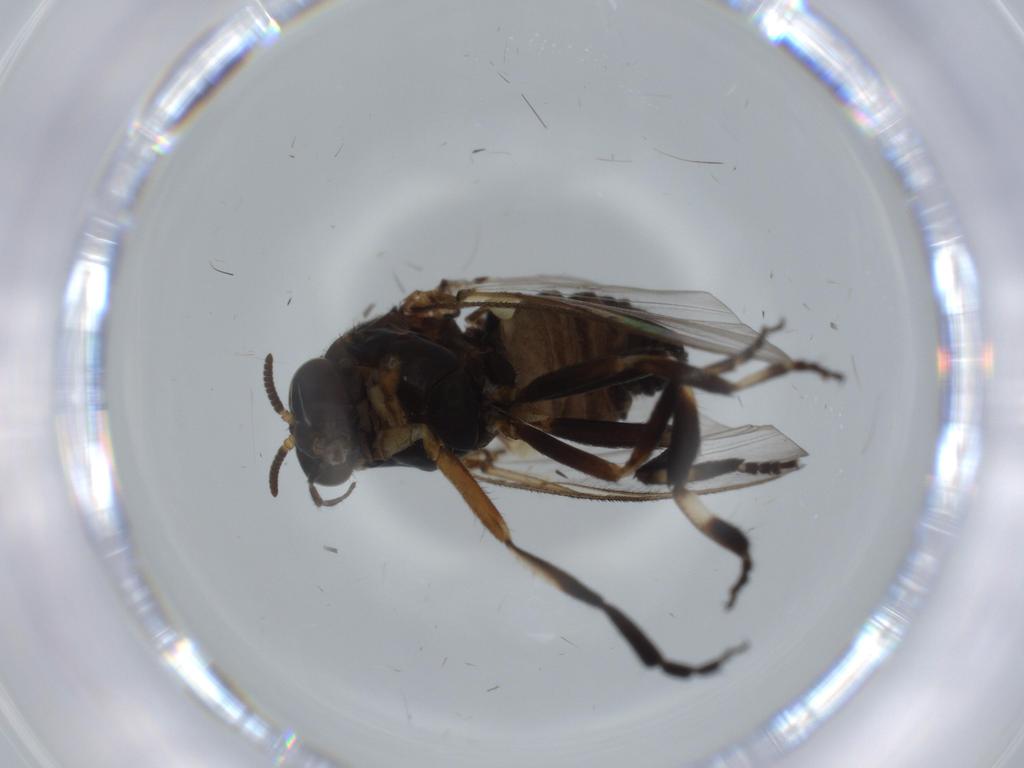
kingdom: Animalia
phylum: Arthropoda
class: Insecta
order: Diptera
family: Cecidomyiidae
